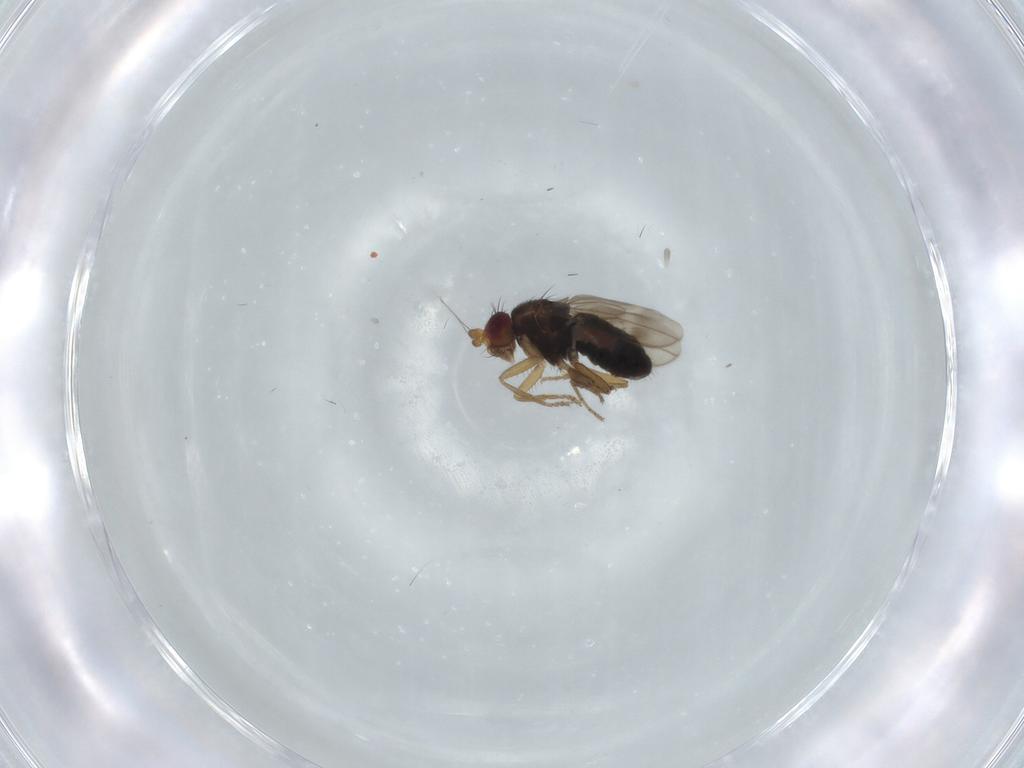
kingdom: Animalia
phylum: Arthropoda
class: Insecta
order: Diptera
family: Sphaeroceridae
